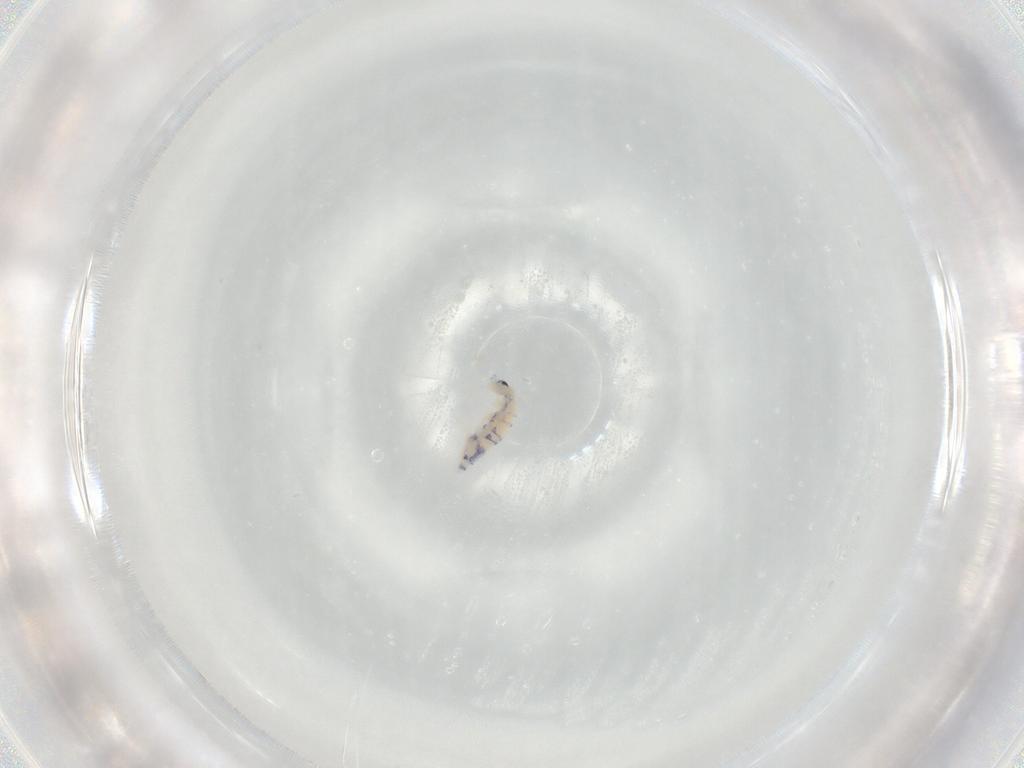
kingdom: Animalia
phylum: Arthropoda
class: Collembola
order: Entomobryomorpha
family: Entomobryidae
